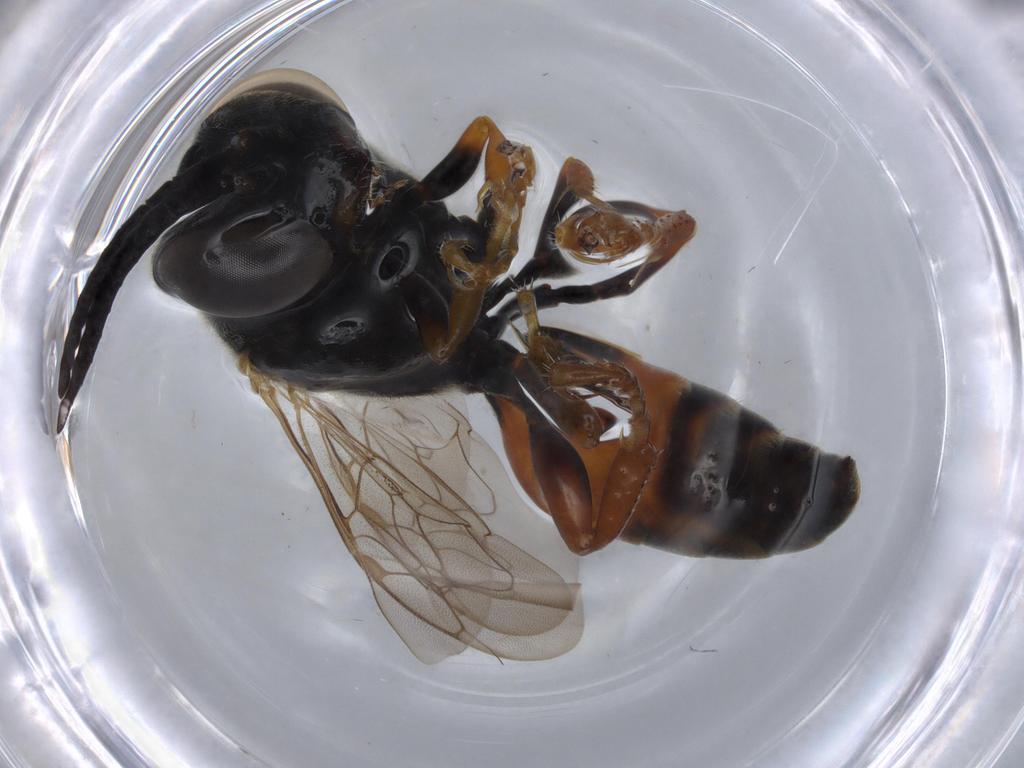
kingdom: Animalia
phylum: Arthropoda
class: Insecta
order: Hymenoptera
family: Crabronidae
